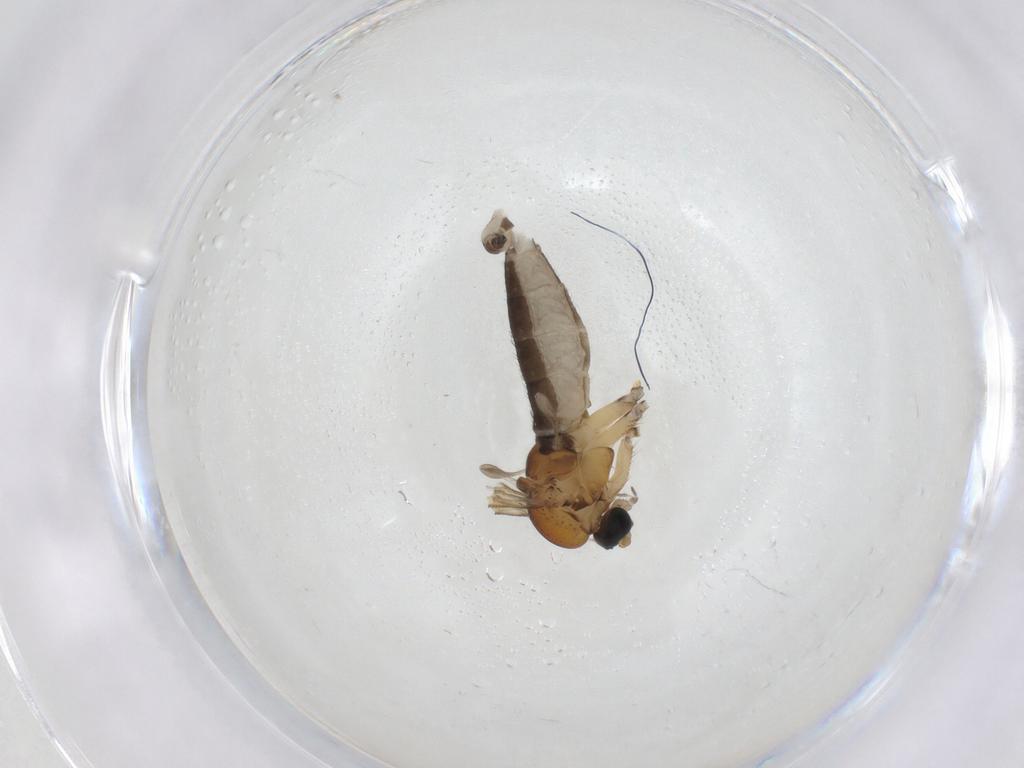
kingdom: Animalia
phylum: Arthropoda
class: Insecta
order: Diptera
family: Sciaridae
